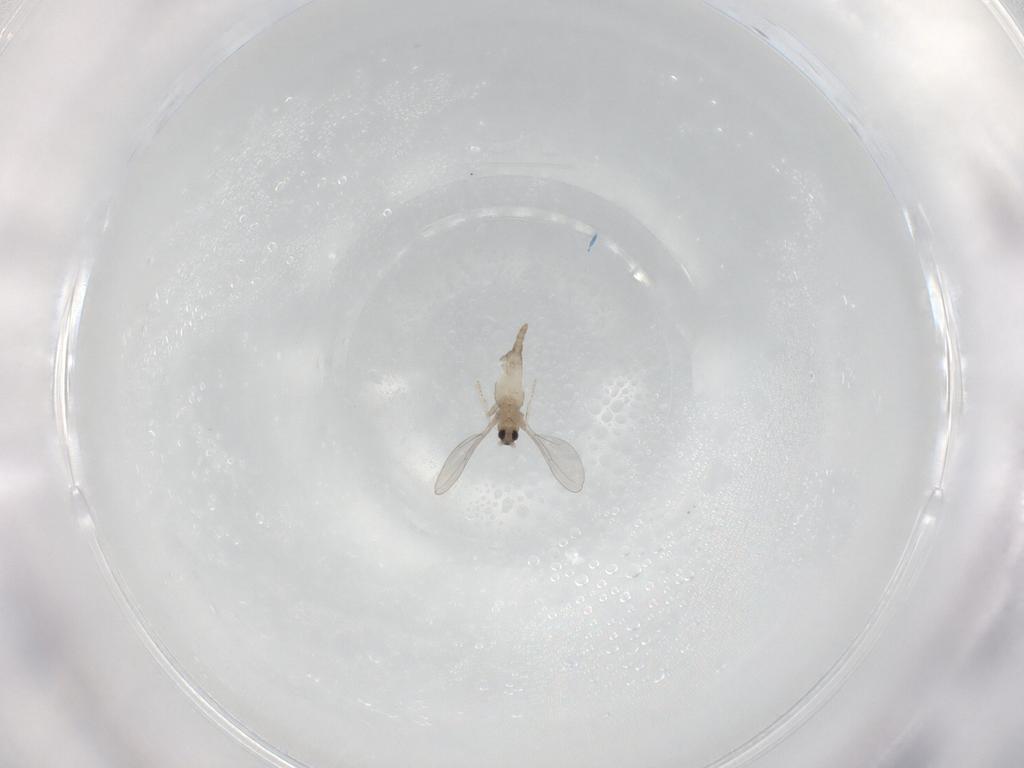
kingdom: Animalia
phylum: Arthropoda
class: Insecta
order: Diptera
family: Cecidomyiidae
